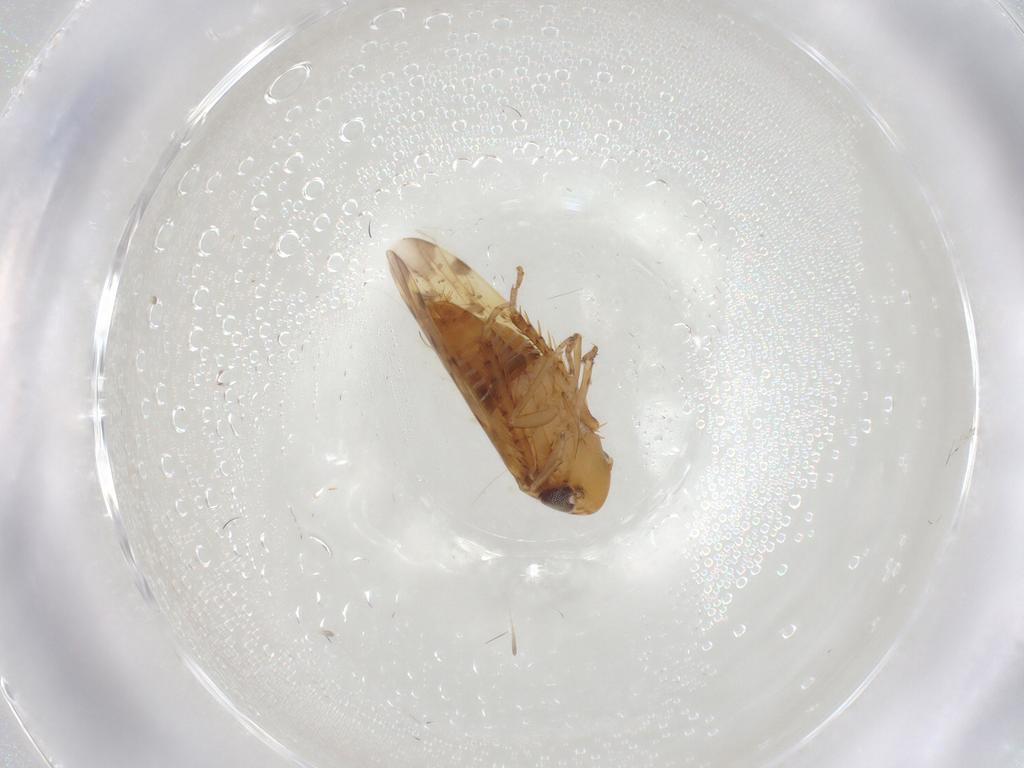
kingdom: Animalia
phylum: Arthropoda
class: Insecta
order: Hemiptera
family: Cicadellidae
